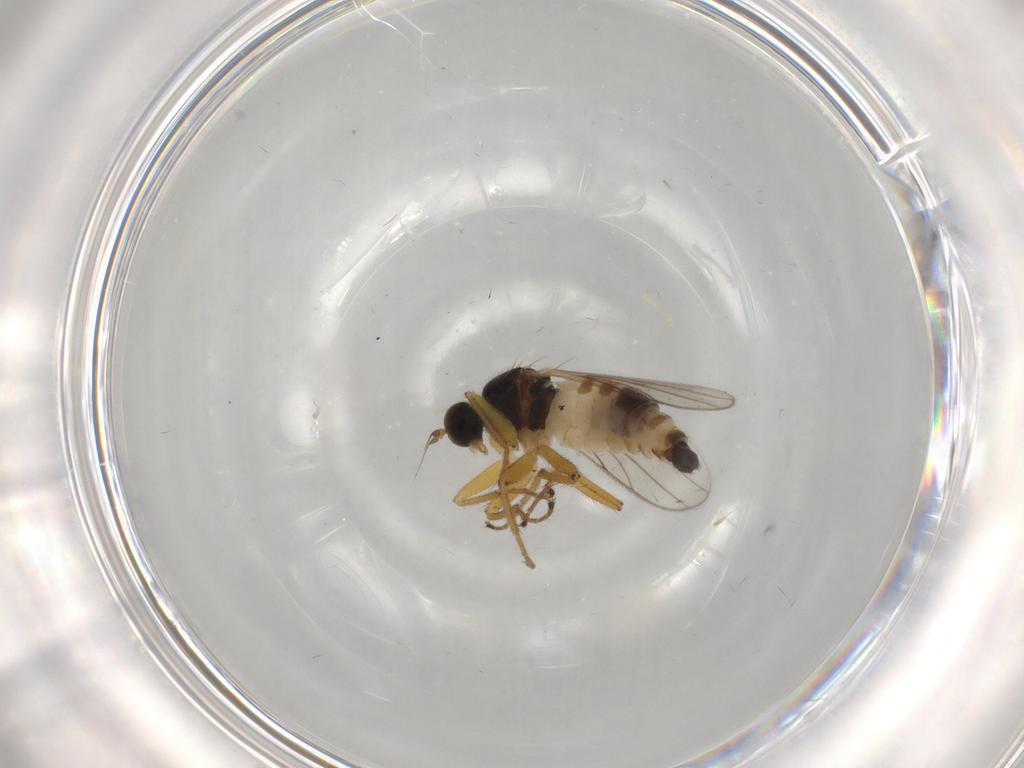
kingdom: Animalia
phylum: Arthropoda
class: Insecta
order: Diptera
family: Hybotidae
